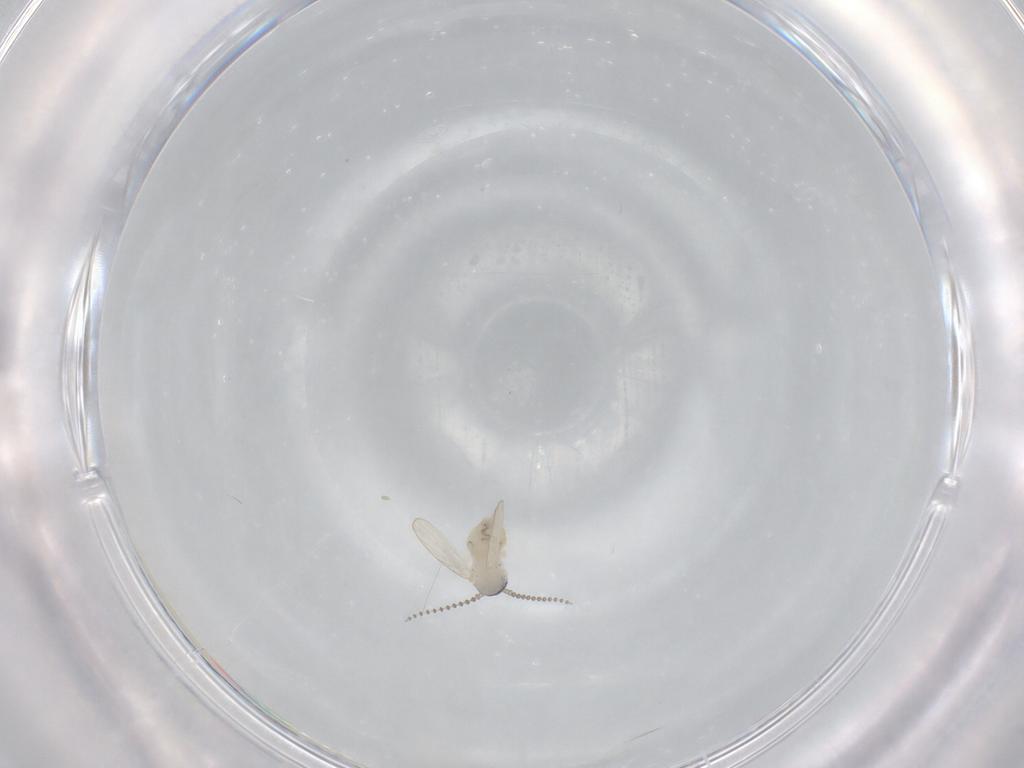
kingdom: Animalia
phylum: Arthropoda
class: Insecta
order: Diptera
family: Psychodidae
